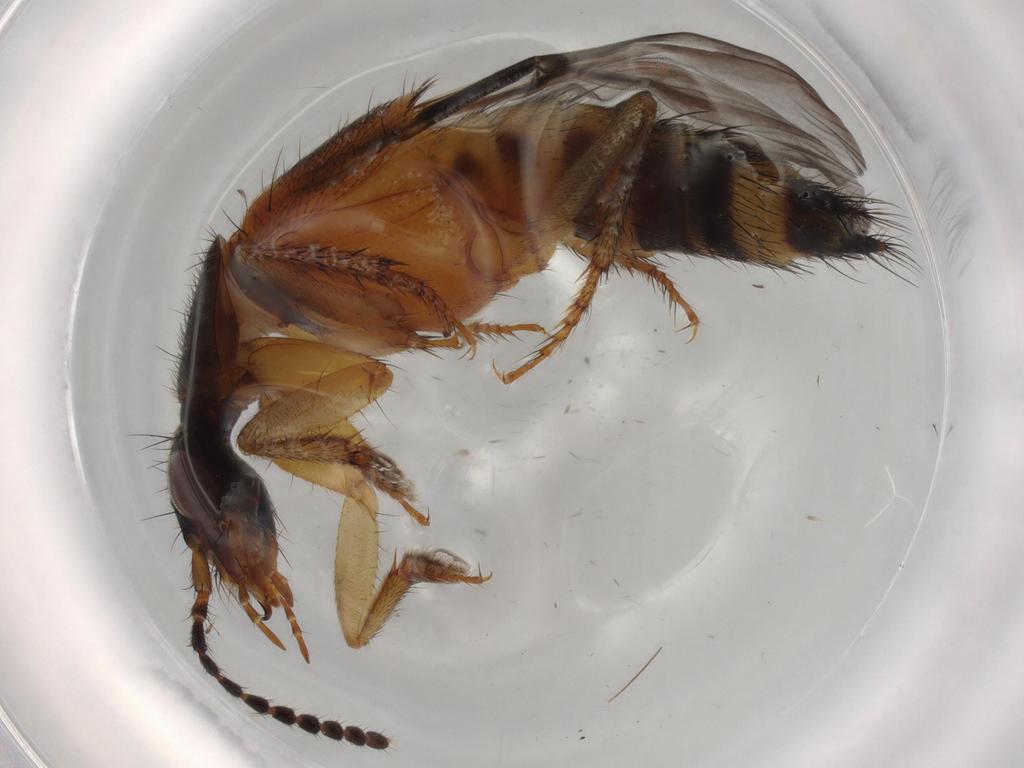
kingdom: Animalia
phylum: Arthropoda
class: Insecta
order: Coleoptera
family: Staphylinidae
